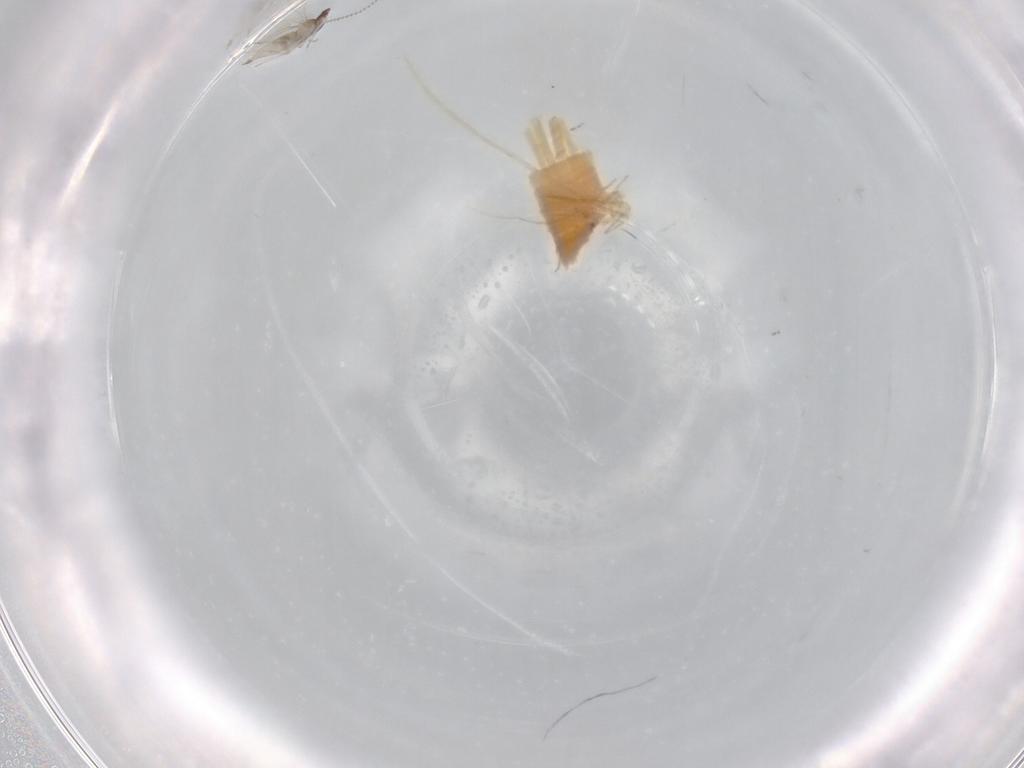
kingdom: Animalia
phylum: Arthropoda
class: Insecta
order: Diptera
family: Cecidomyiidae
